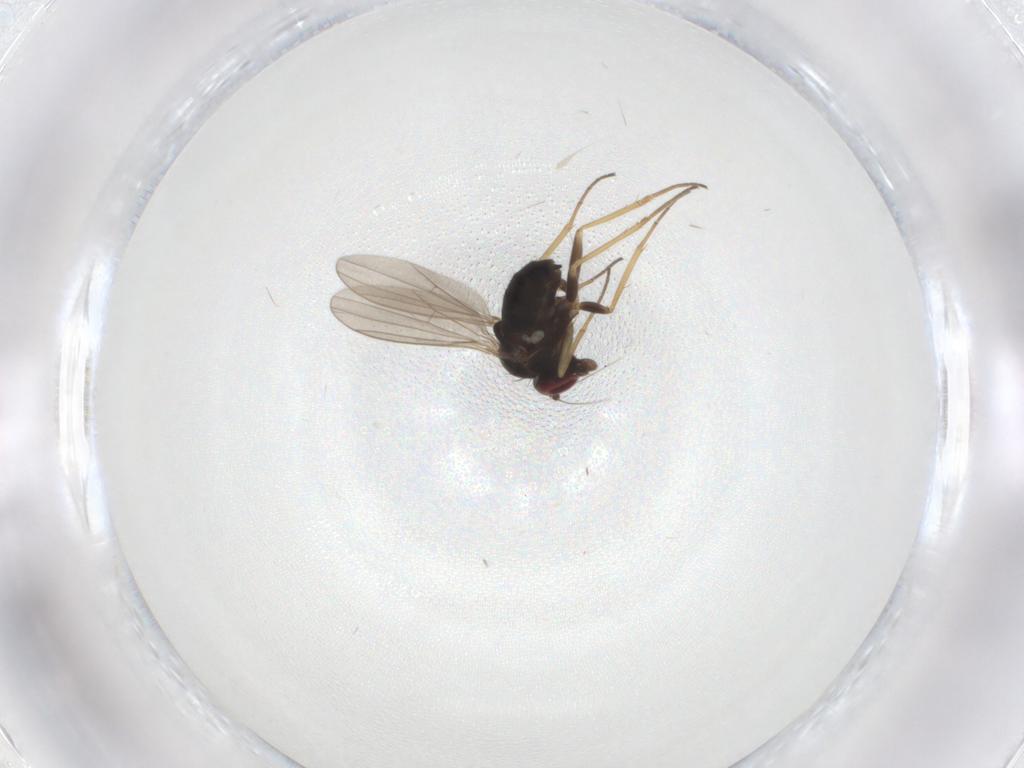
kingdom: Animalia
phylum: Arthropoda
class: Insecta
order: Diptera
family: Dolichopodidae
